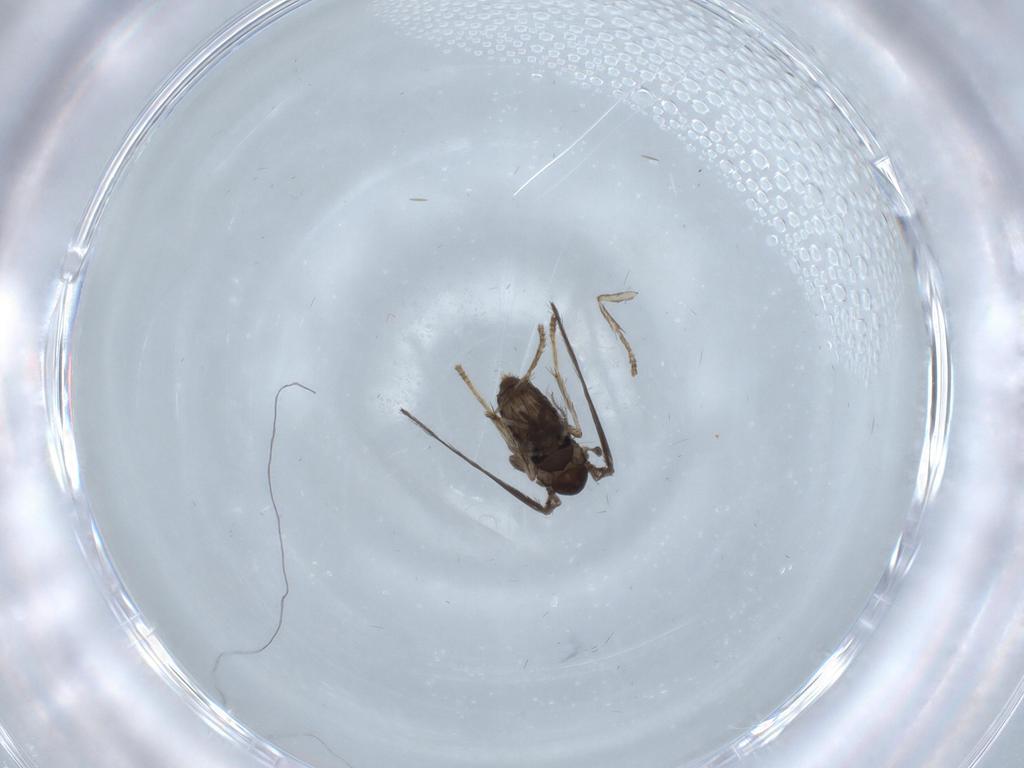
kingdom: Animalia
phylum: Arthropoda
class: Insecta
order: Diptera
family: Psychodidae
